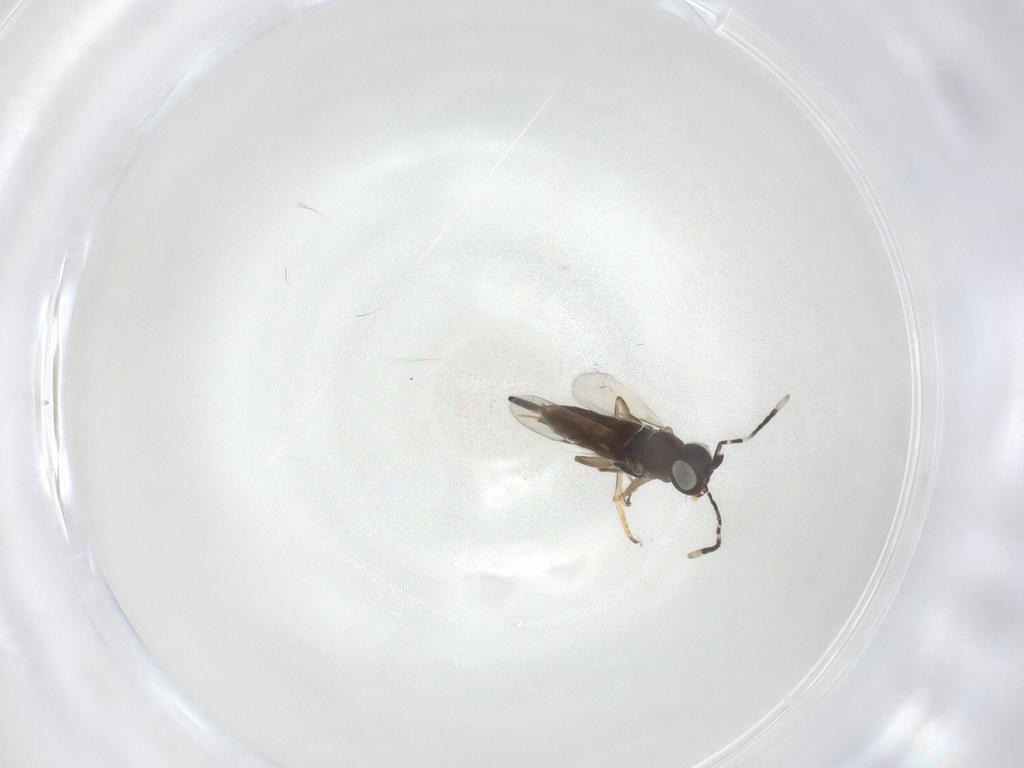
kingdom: Animalia
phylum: Arthropoda
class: Insecta
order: Hymenoptera
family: Encyrtidae
